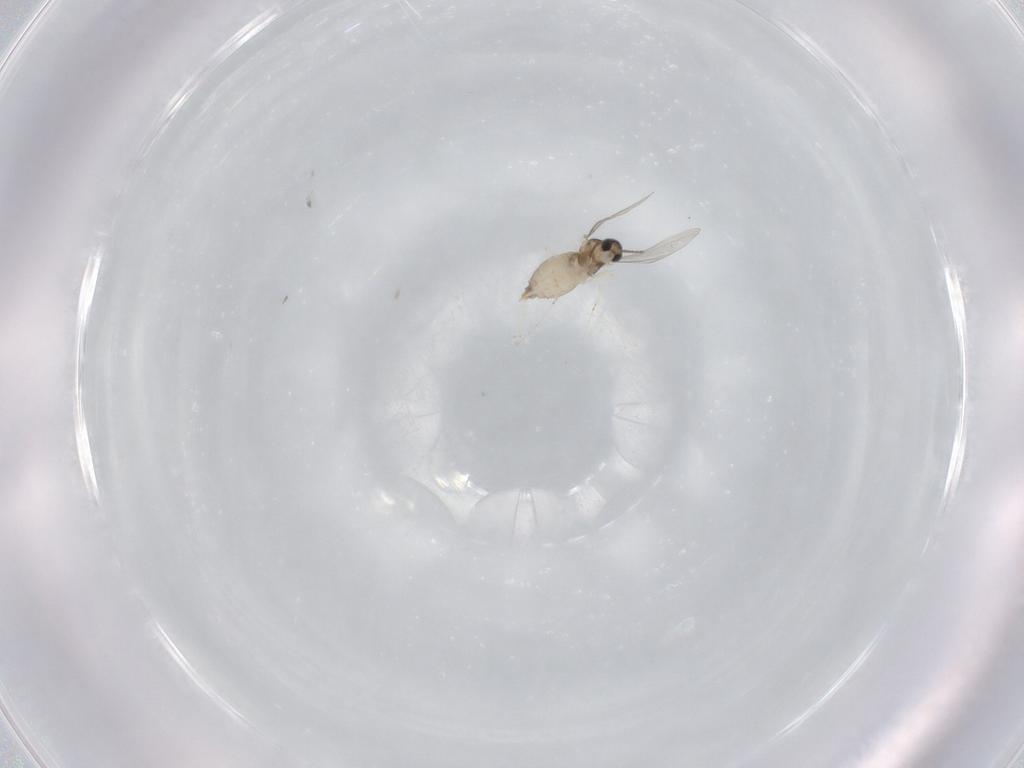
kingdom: Animalia
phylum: Arthropoda
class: Insecta
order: Diptera
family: Cecidomyiidae
